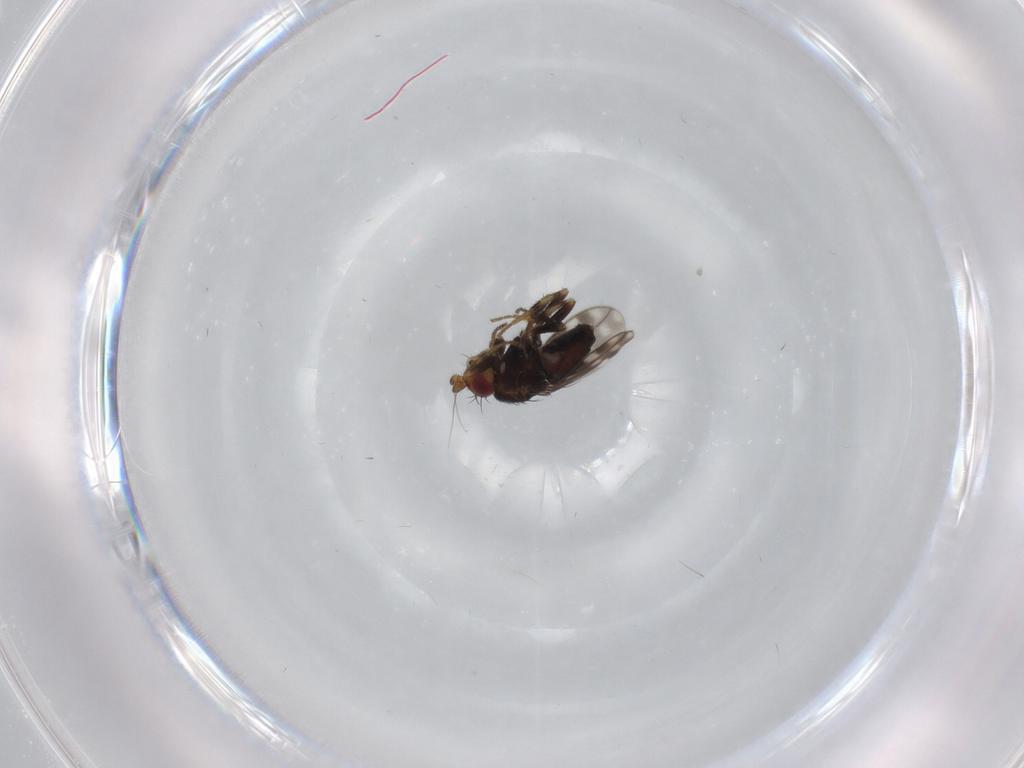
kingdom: Animalia
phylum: Arthropoda
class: Insecta
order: Diptera
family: Sphaeroceridae
